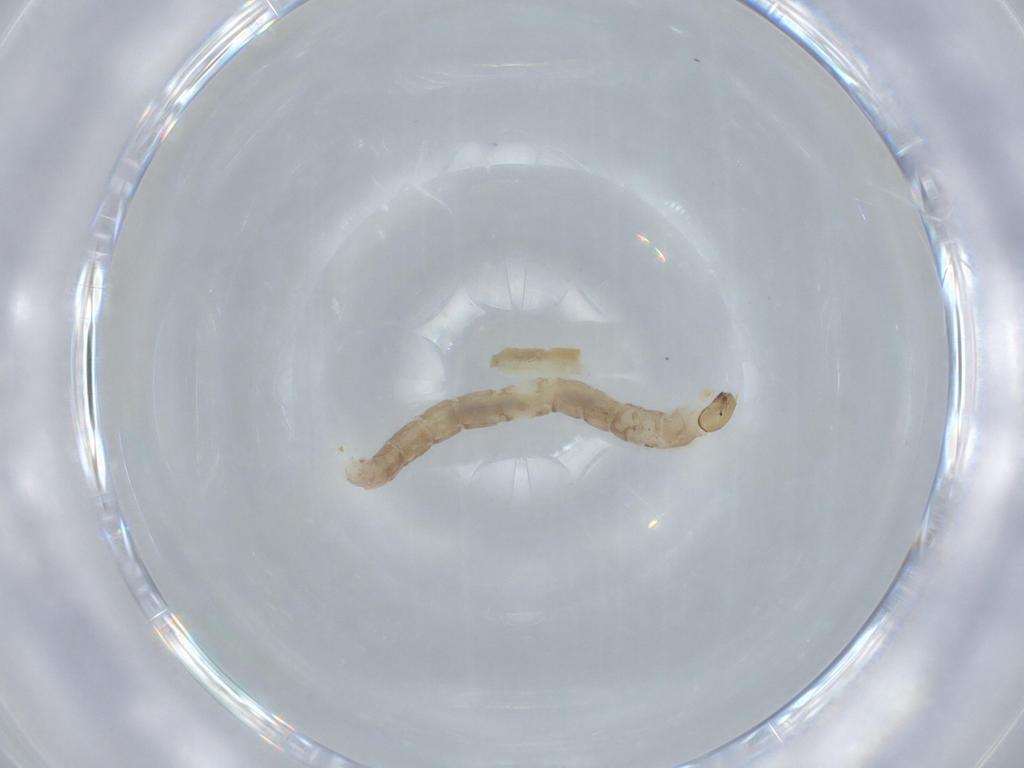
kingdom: Animalia
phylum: Arthropoda
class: Insecta
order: Diptera
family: Chironomidae
